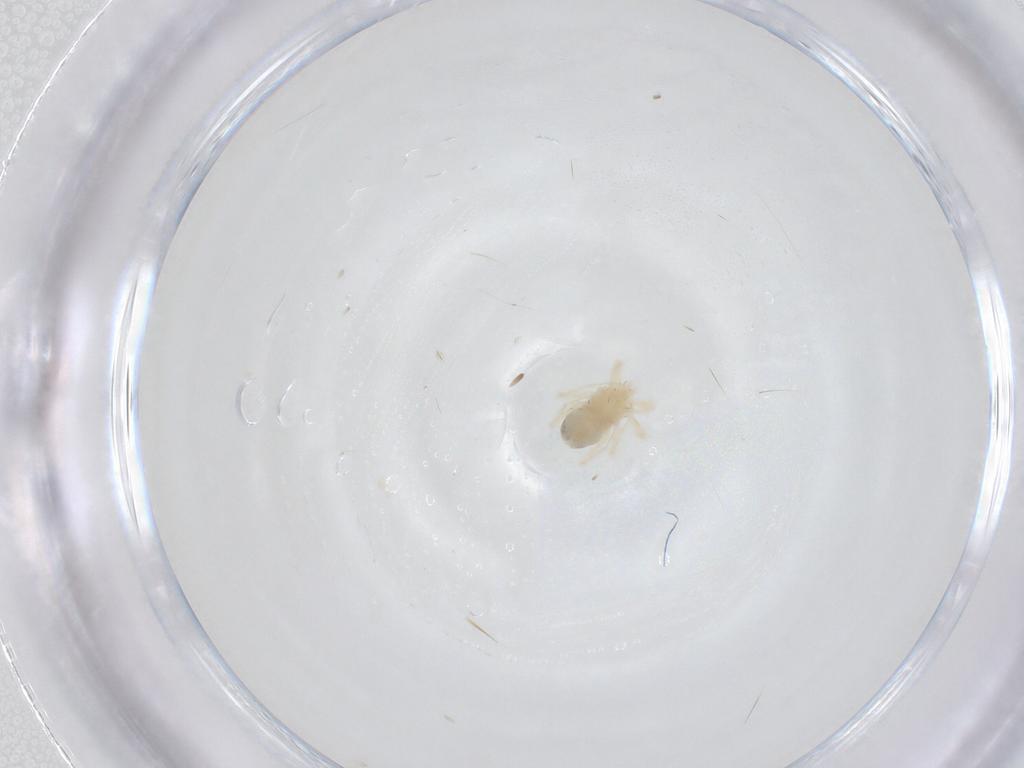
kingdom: Animalia
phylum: Arthropoda
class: Arachnida
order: Trombidiformes
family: Anystidae
